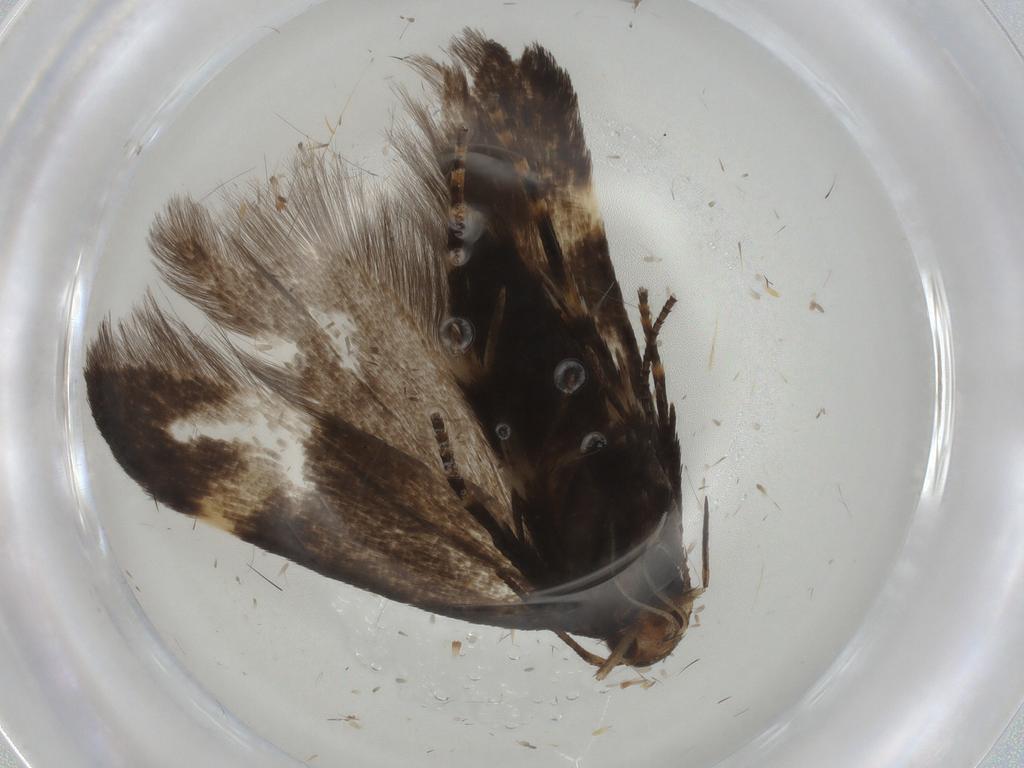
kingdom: Animalia
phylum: Arthropoda
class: Insecta
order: Lepidoptera
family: Gelechiidae
